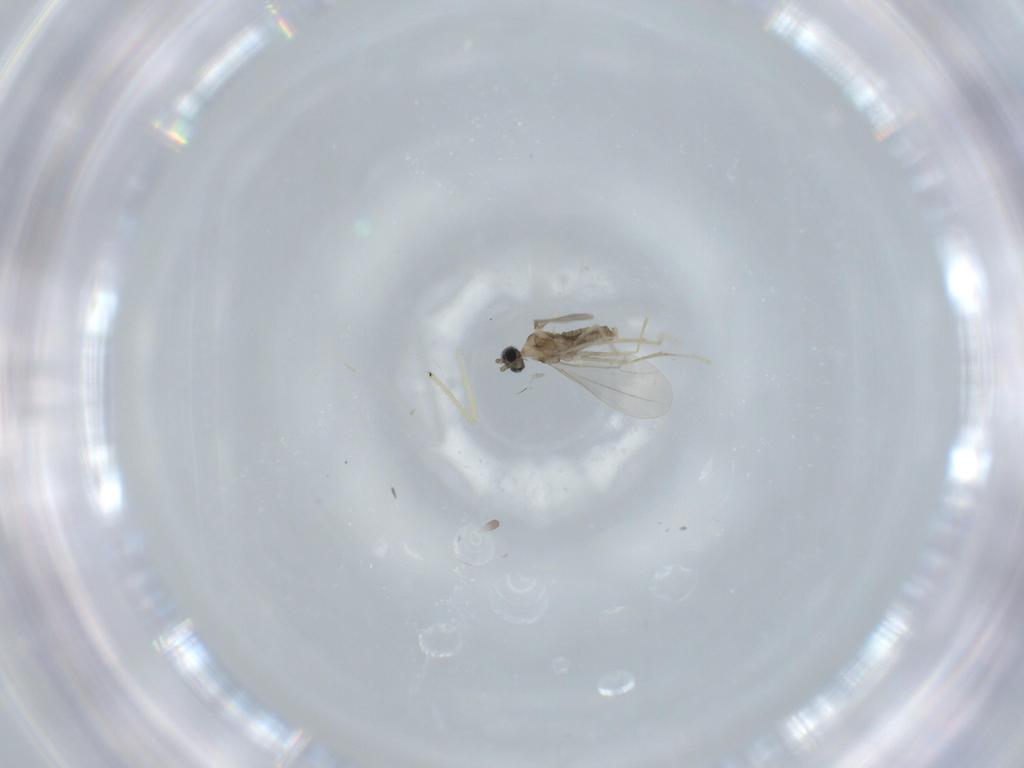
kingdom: Animalia
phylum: Arthropoda
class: Insecta
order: Diptera
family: Cecidomyiidae
